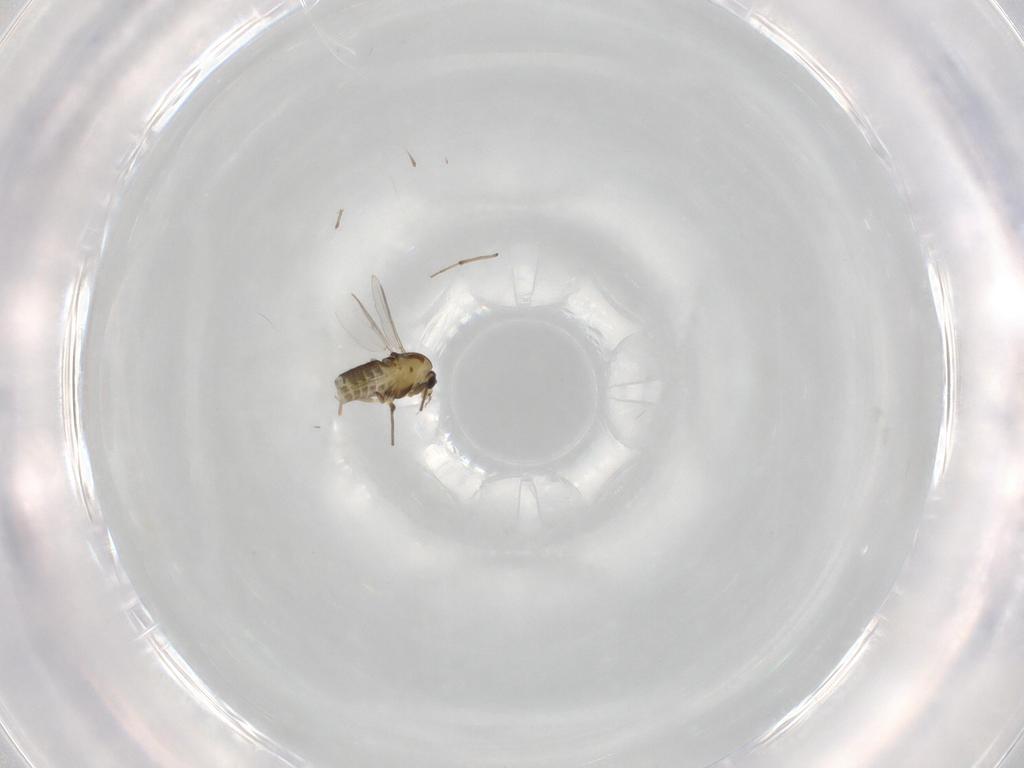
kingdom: Animalia
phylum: Arthropoda
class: Insecta
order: Diptera
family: Chironomidae
